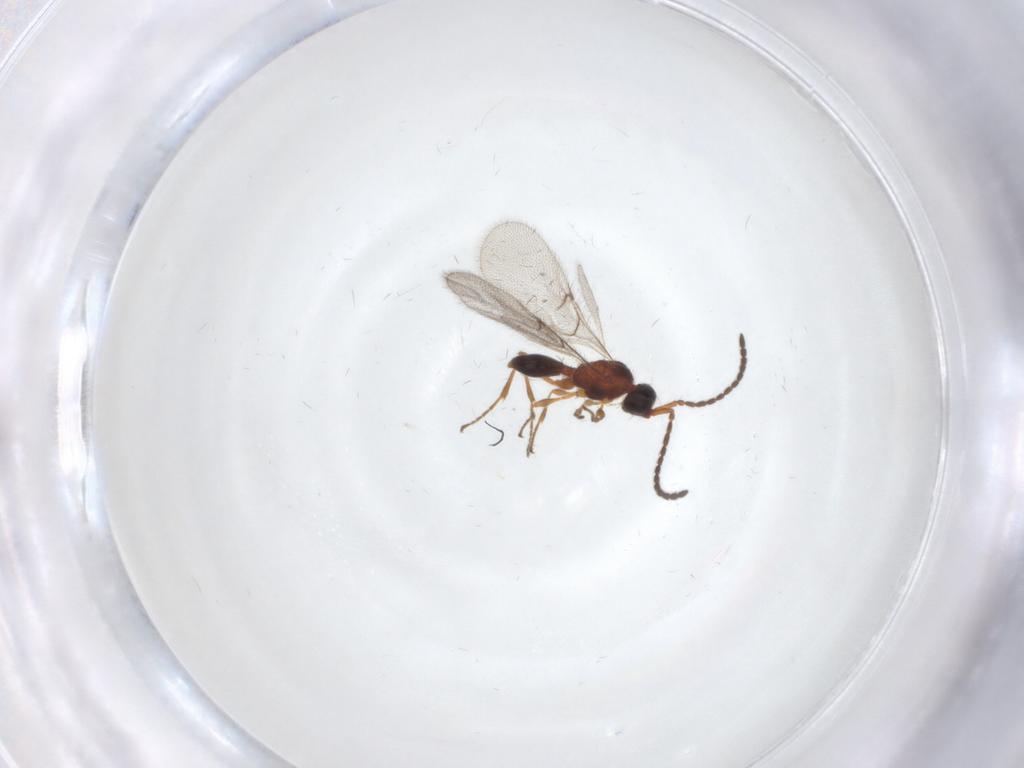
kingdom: Animalia
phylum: Arthropoda
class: Insecta
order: Hymenoptera
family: Diapriidae
